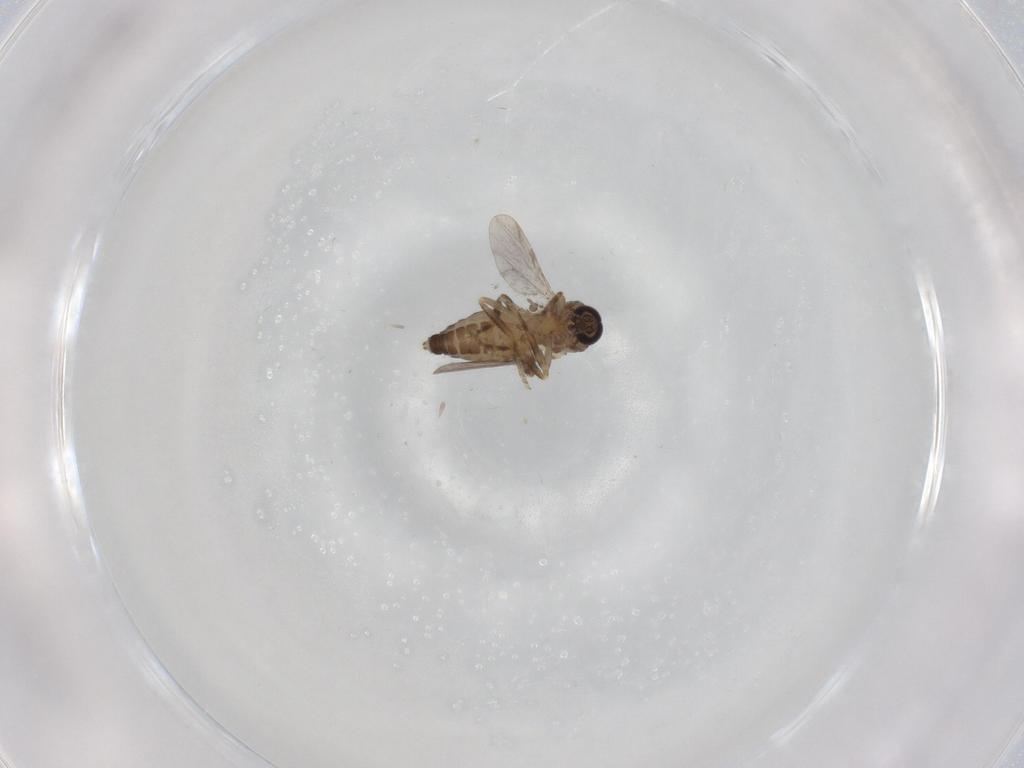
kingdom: Animalia
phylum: Arthropoda
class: Insecta
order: Diptera
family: Ceratopogonidae
